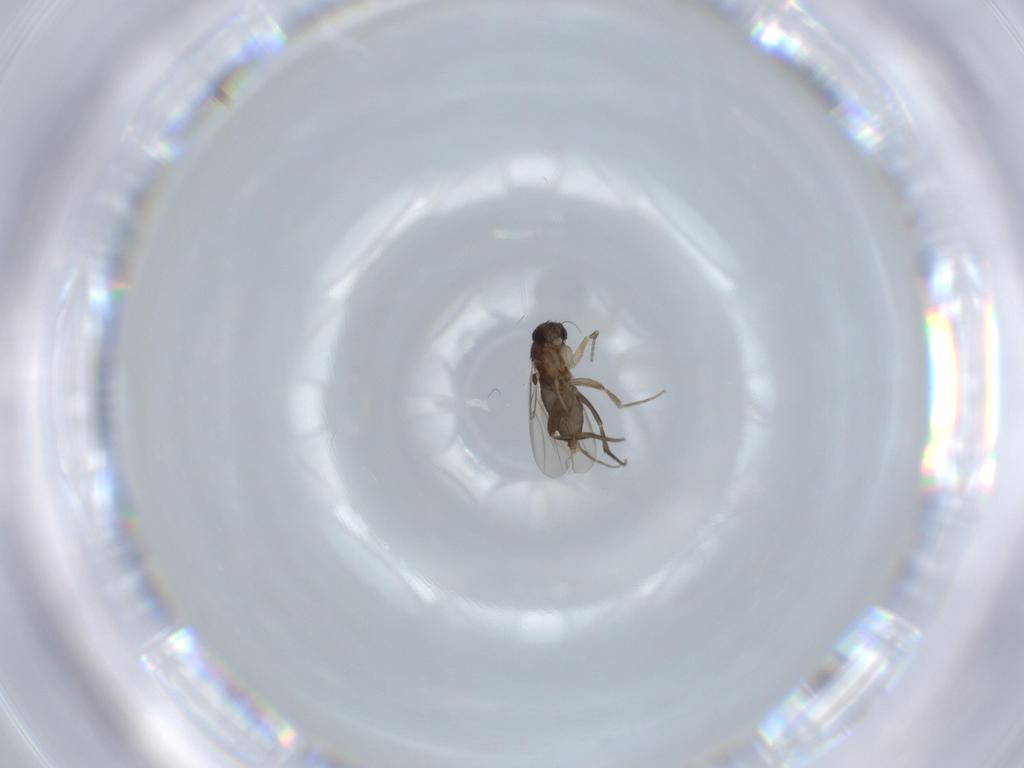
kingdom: Animalia
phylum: Arthropoda
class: Insecta
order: Diptera
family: Phoridae
